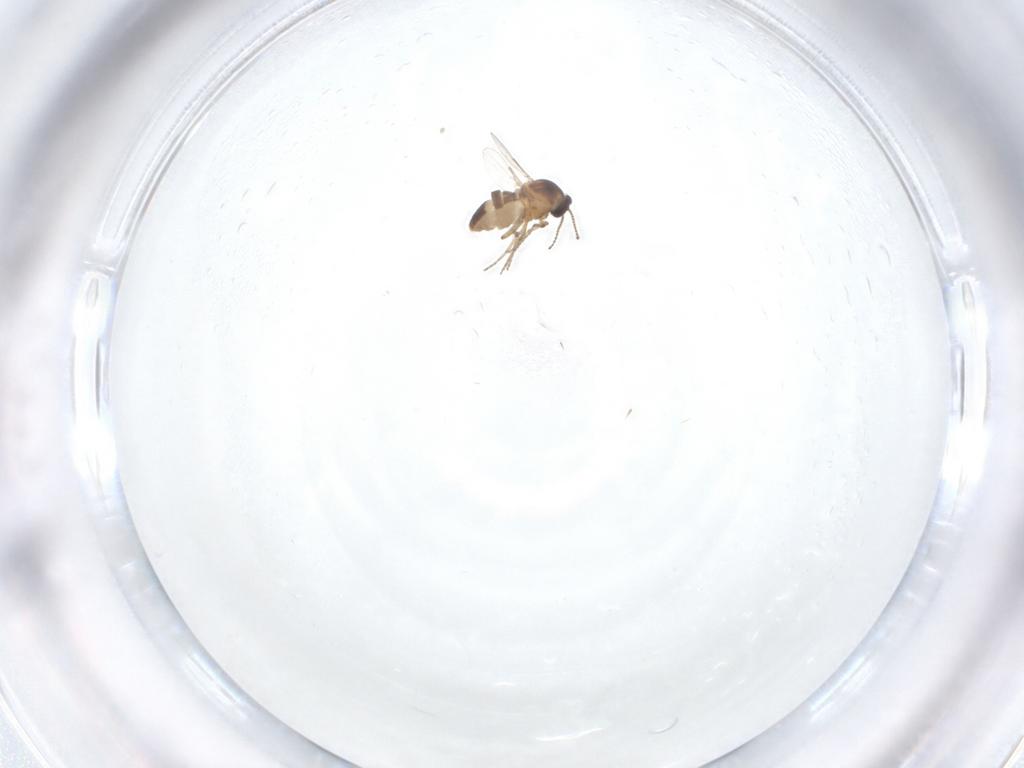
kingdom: Animalia
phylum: Arthropoda
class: Insecta
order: Diptera
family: Ceratopogonidae
